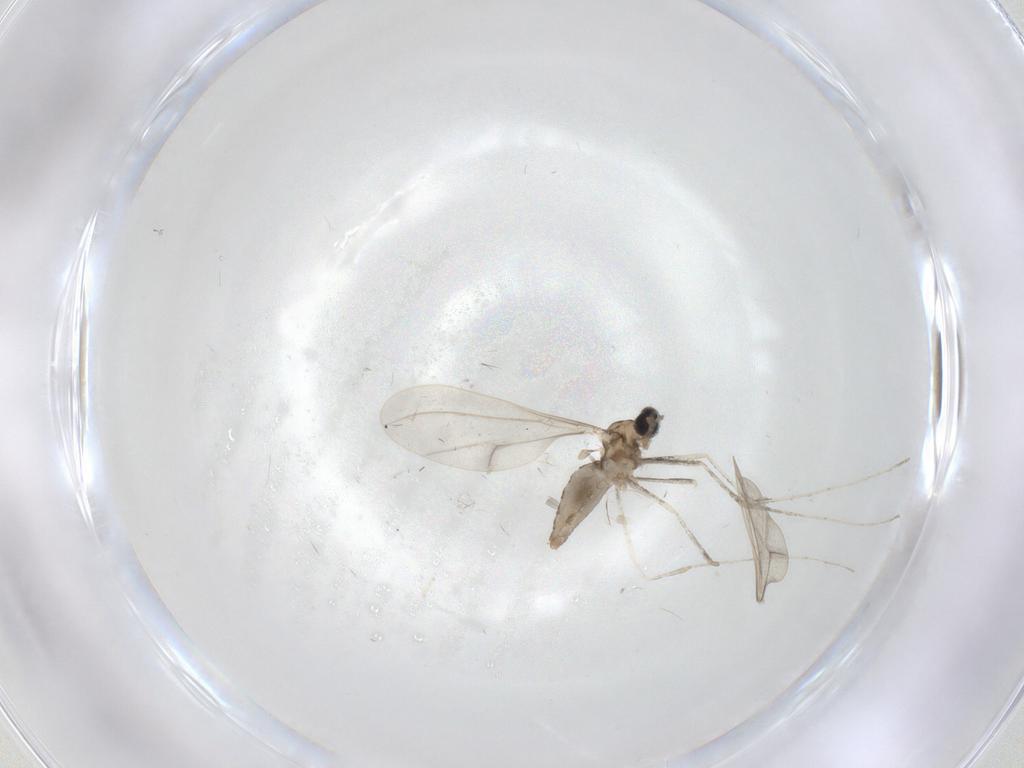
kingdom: Animalia
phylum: Arthropoda
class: Insecta
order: Diptera
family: Cecidomyiidae
